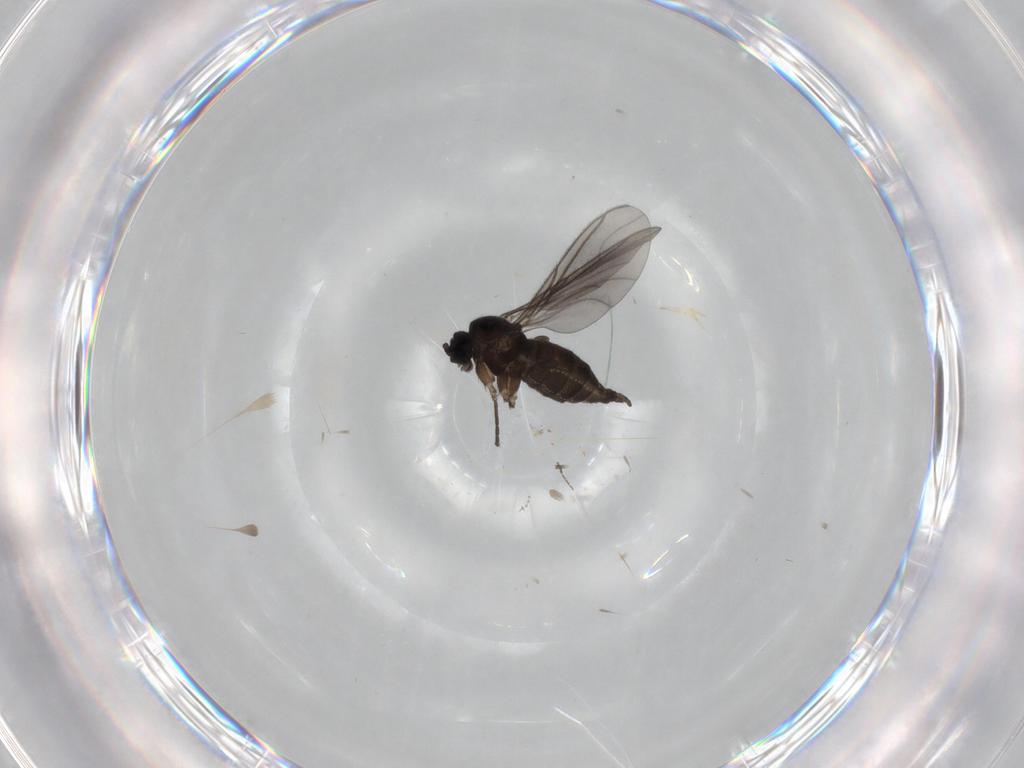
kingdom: Animalia
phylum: Arthropoda
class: Insecta
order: Diptera
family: Sciaridae
